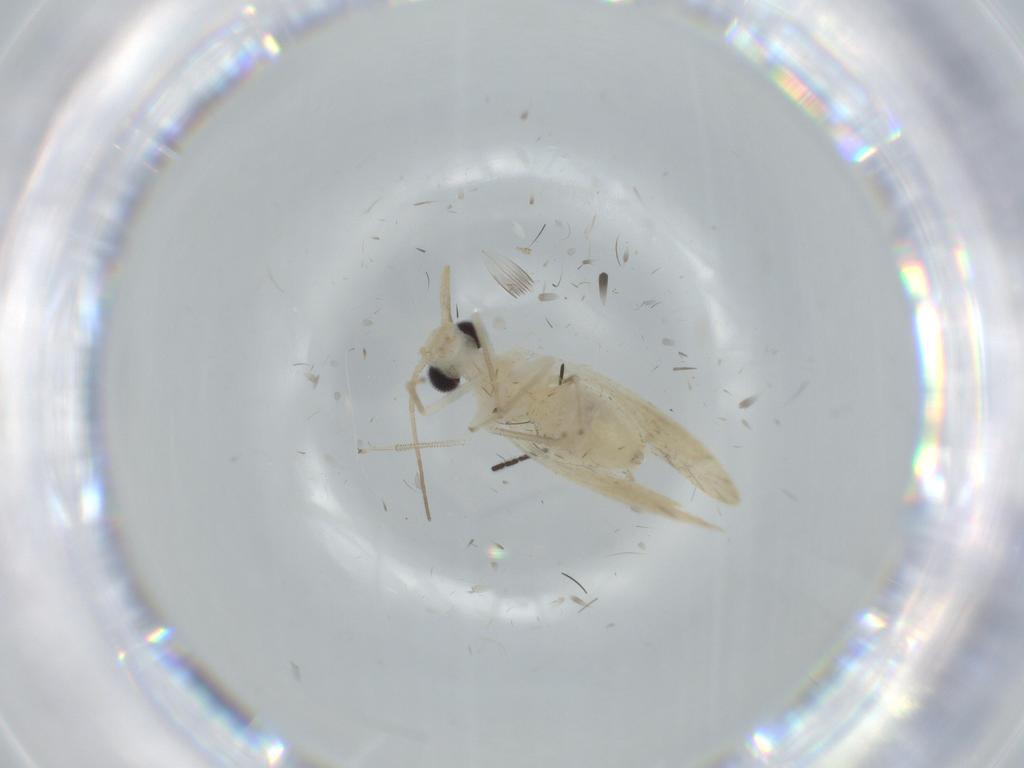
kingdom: Animalia
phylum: Arthropoda
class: Insecta
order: Psocodea
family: Caeciliusidae
